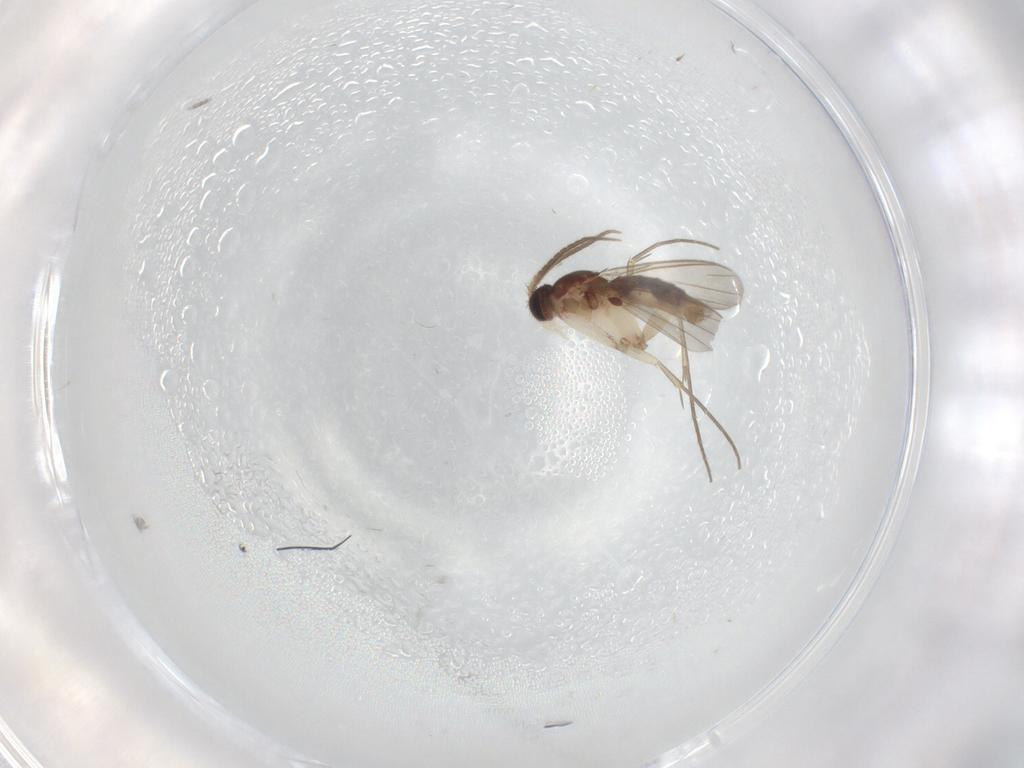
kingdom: Animalia
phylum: Arthropoda
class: Insecta
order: Diptera
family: Mycetophilidae
